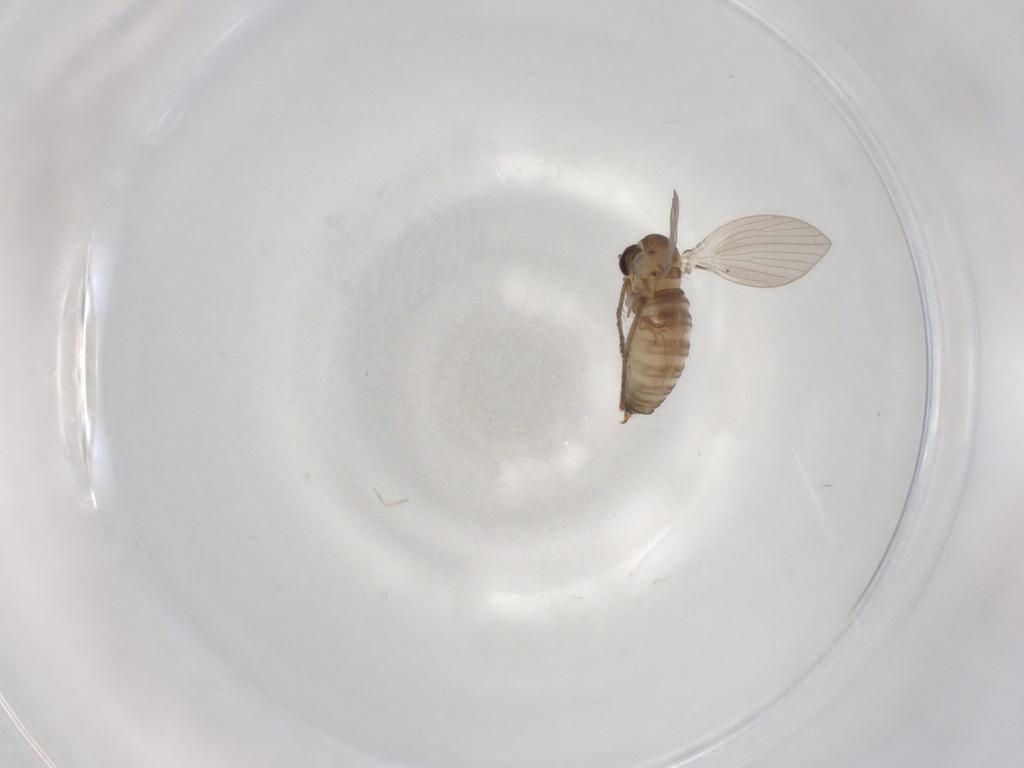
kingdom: Animalia
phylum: Arthropoda
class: Insecta
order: Diptera
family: Psychodidae
